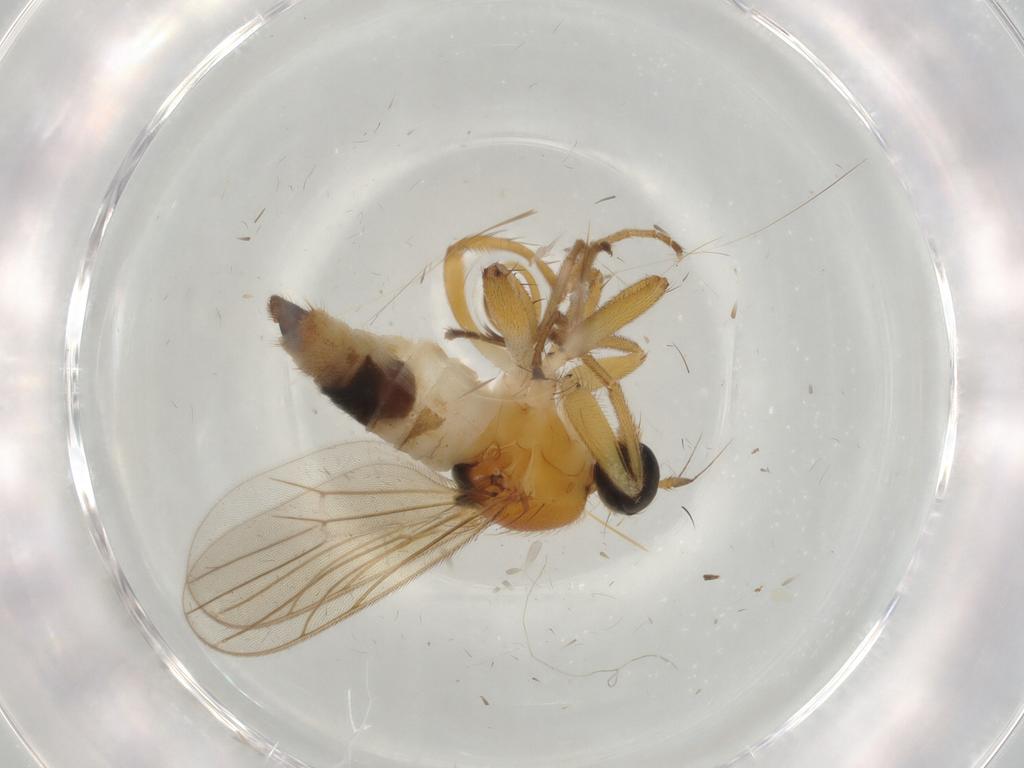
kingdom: Animalia
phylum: Arthropoda
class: Insecta
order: Diptera
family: Hybotidae
